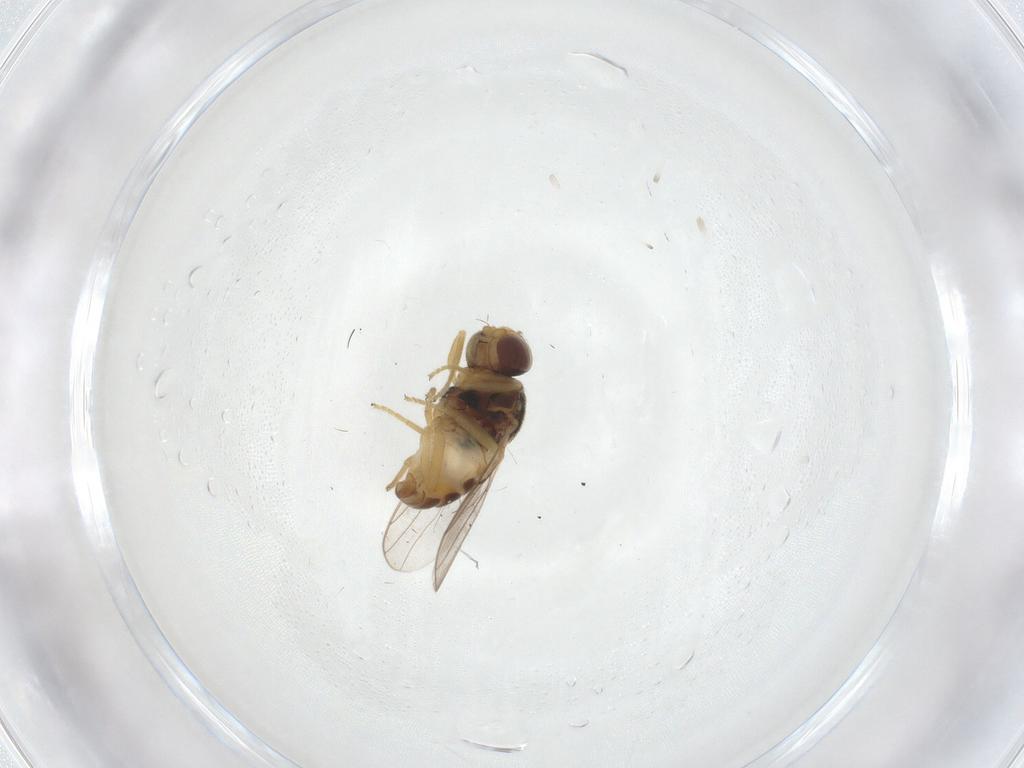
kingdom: Animalia
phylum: Arthropoda
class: Insecta
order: Diptera
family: Chloropidae
